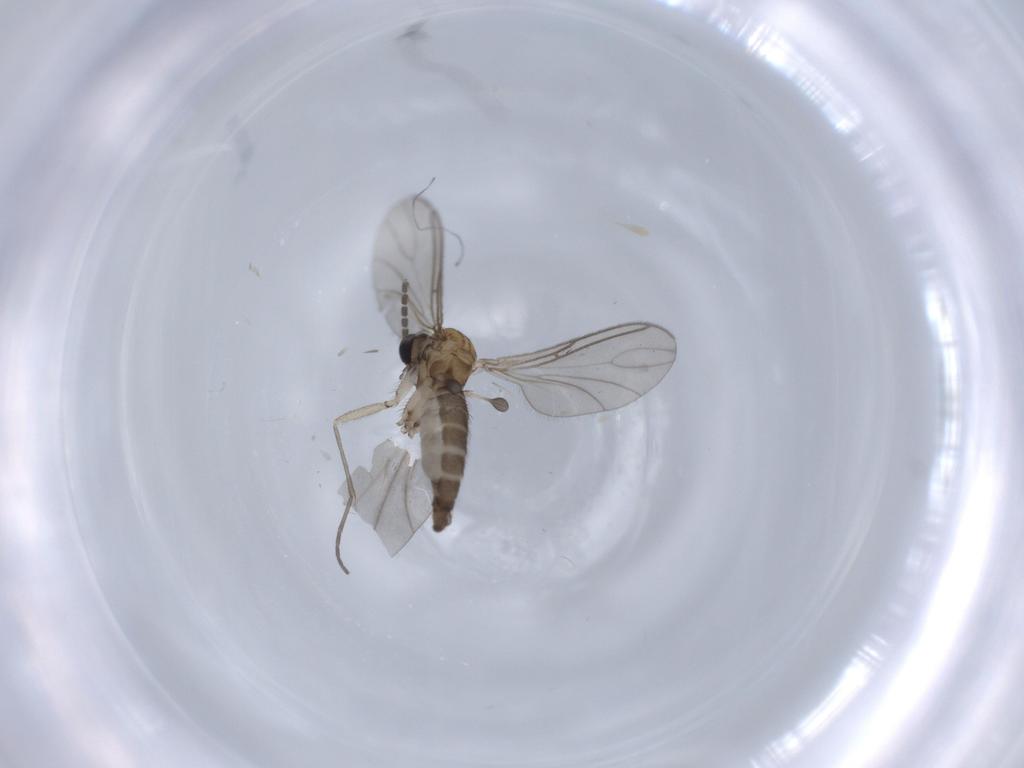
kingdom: Animalia
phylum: Arthropoda
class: Insecta
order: Diptera
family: Sciaridae
